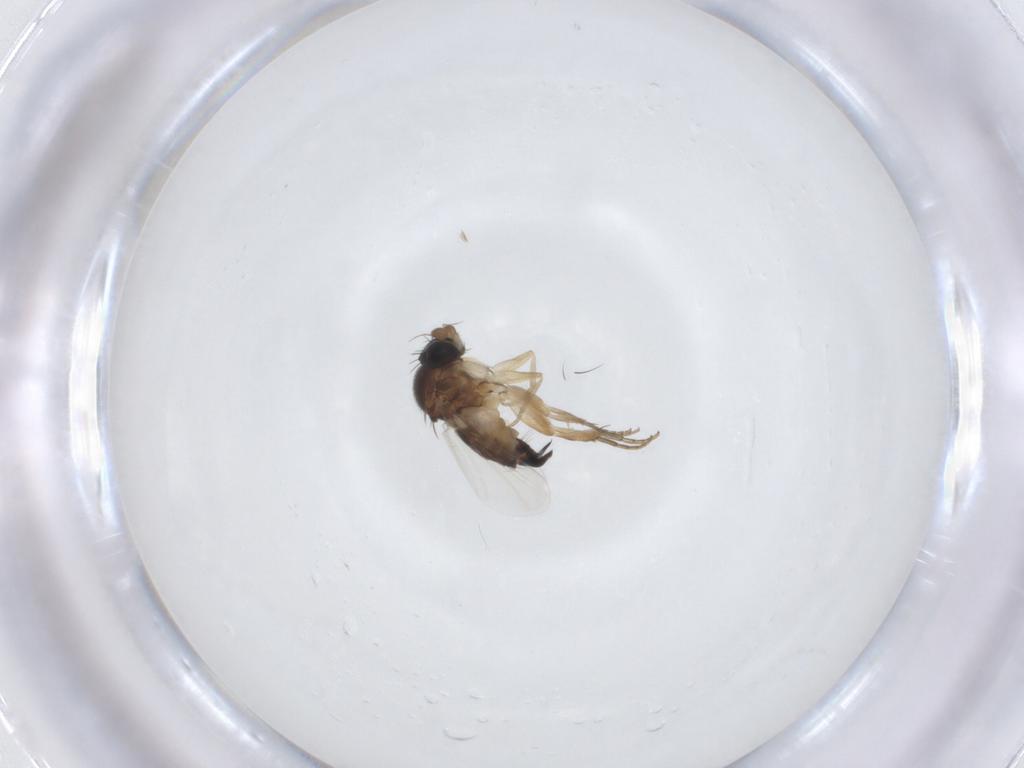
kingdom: Animalia
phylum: Arthropoda
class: Insecta
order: Diptera
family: Phoridae
